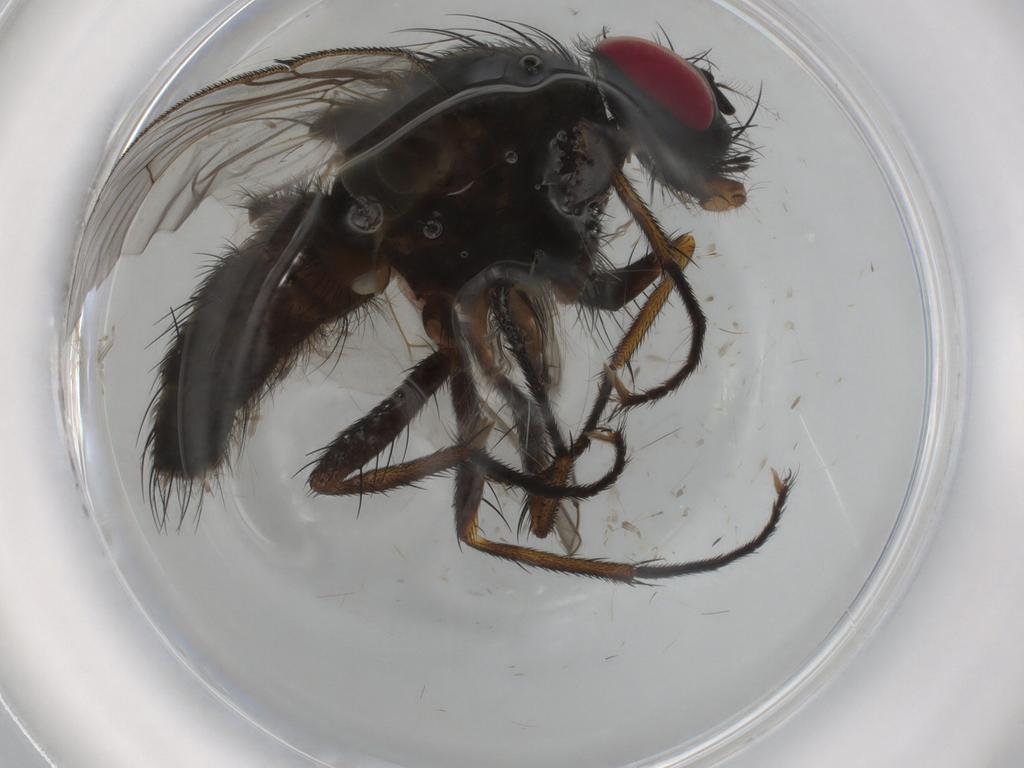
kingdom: Animalia
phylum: Arthropoda
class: Insecta
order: Diptera
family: Muscidae
